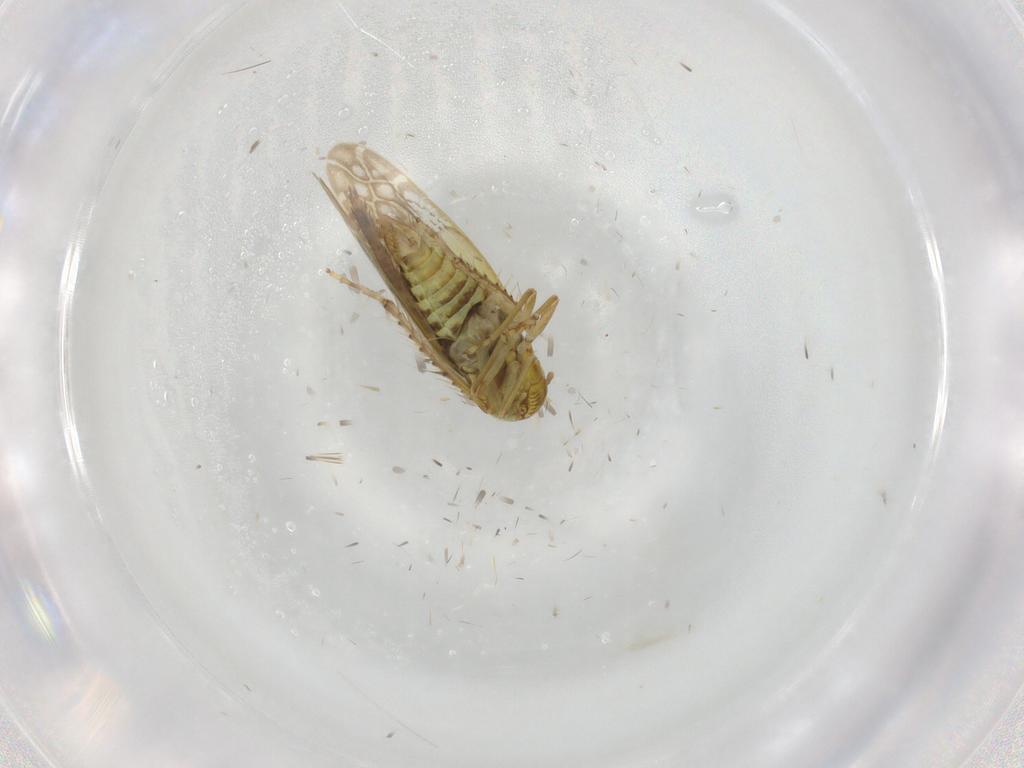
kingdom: Animalia
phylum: Arthropoda
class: Insecta
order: Hemiptera
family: Cicadellidae
